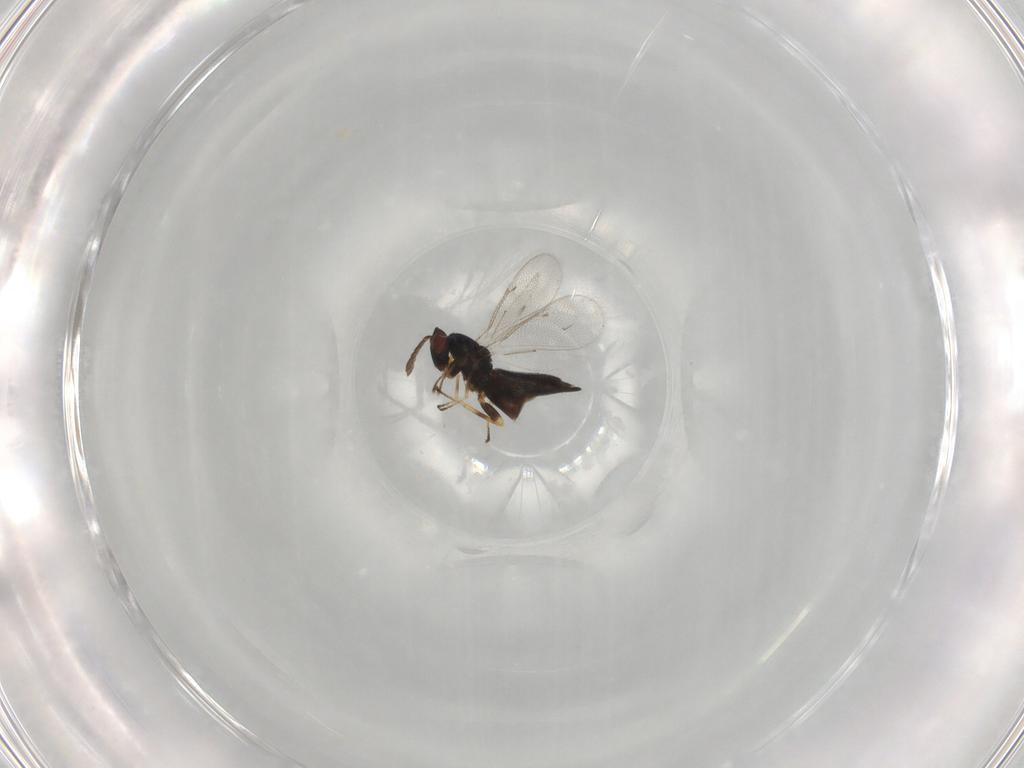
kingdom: Animalia
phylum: Arthropoda
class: Insecta
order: Hymenoptera
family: Eulophidae
